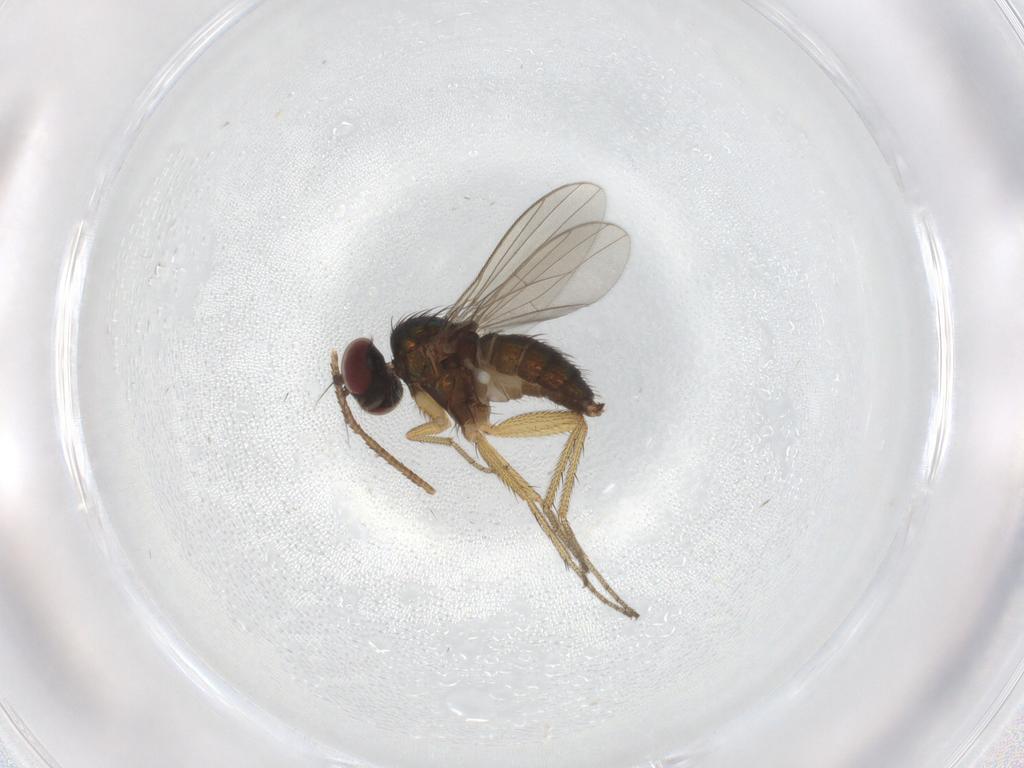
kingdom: Animalia
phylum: Arthropoda
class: Insecta
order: Diptera
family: Dolichopodidae
